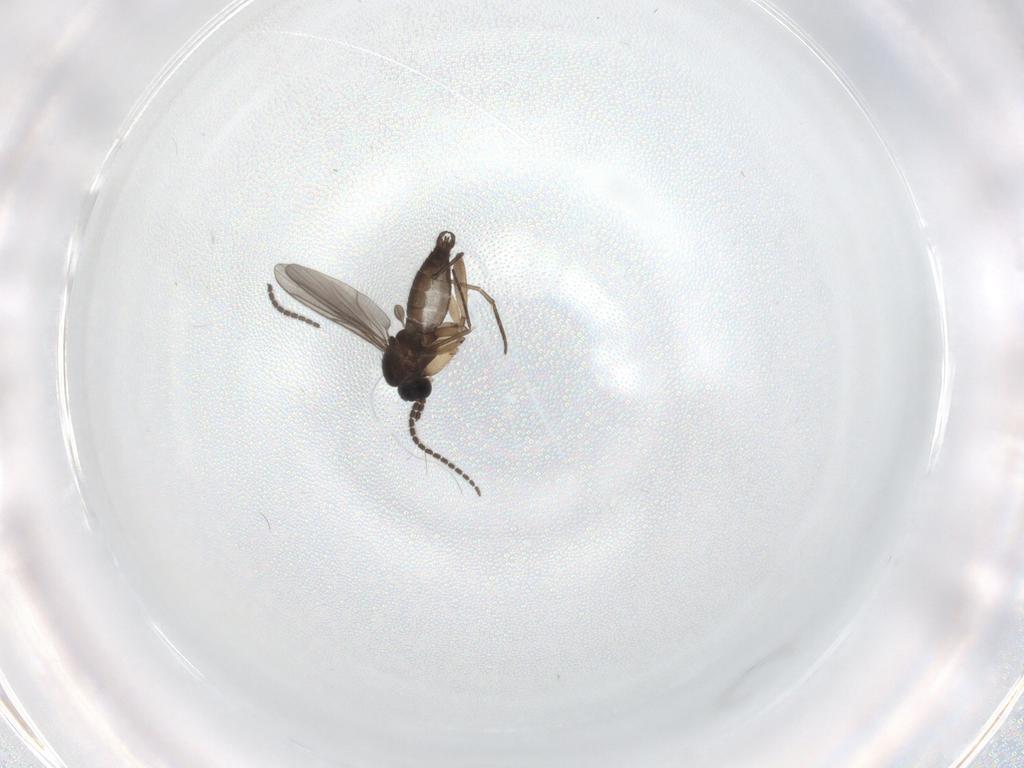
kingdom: Animalia
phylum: Arthropoda
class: Insecta
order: Diptera
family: Sciaridae
